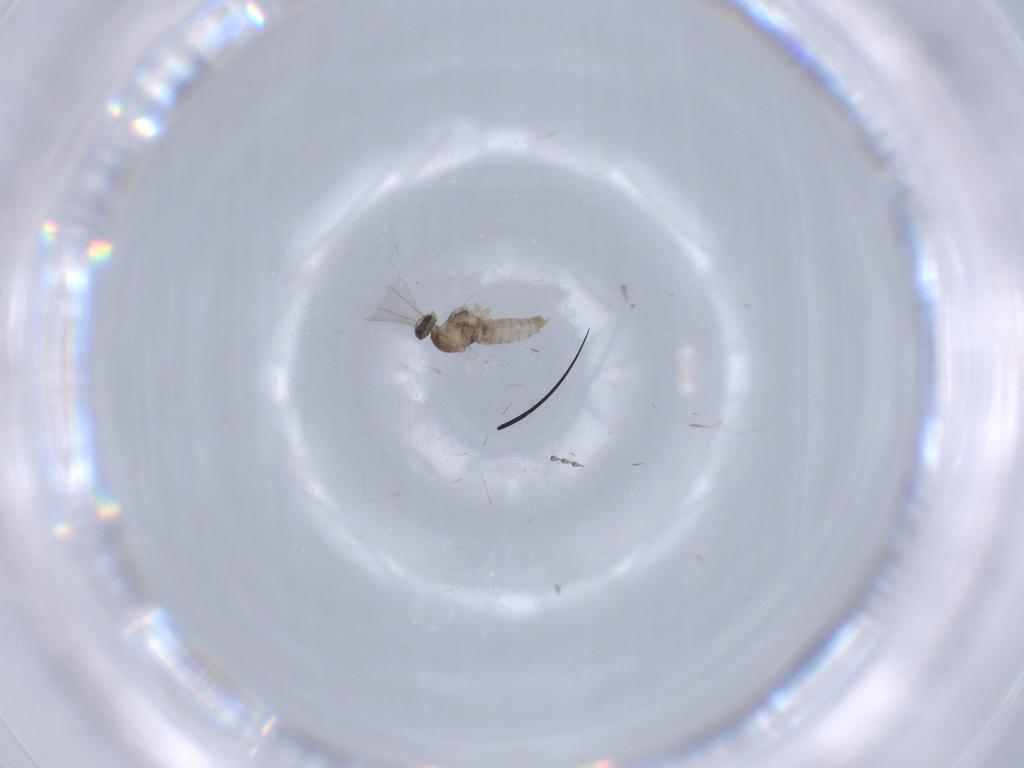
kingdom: Animalia
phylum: Arthropoda
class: Insecta
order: Diptera
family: Cecidomyiidae
